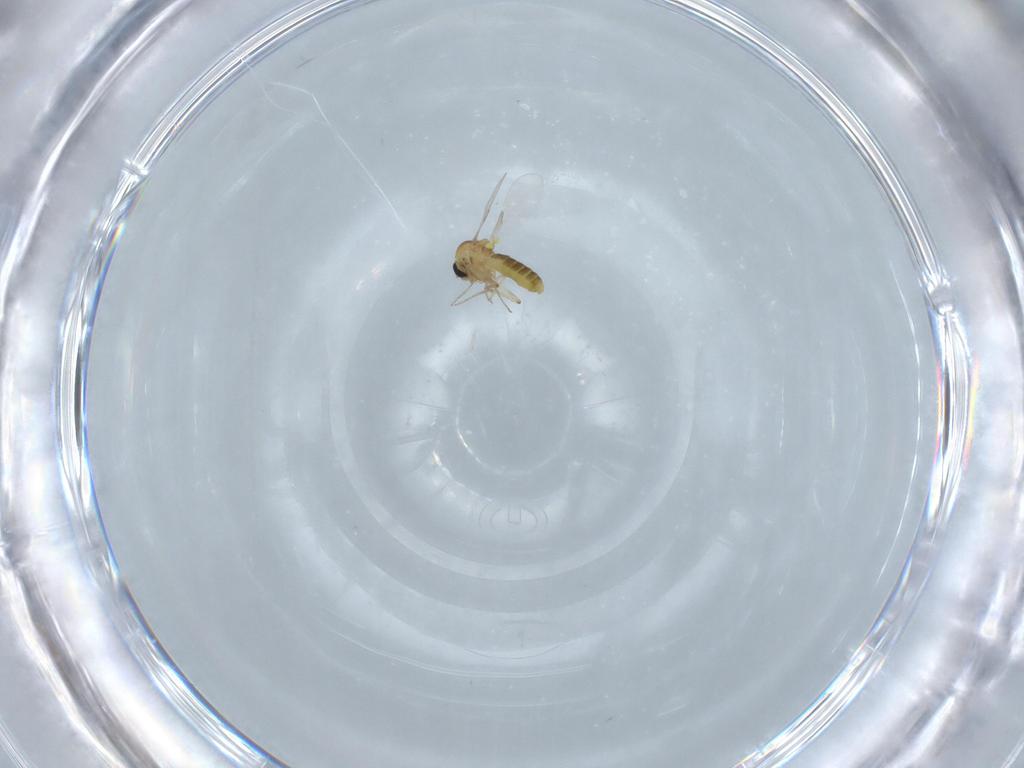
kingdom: Animalia
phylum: Arthropoda
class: Insecta
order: Diptera
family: Ceratopogonidae
